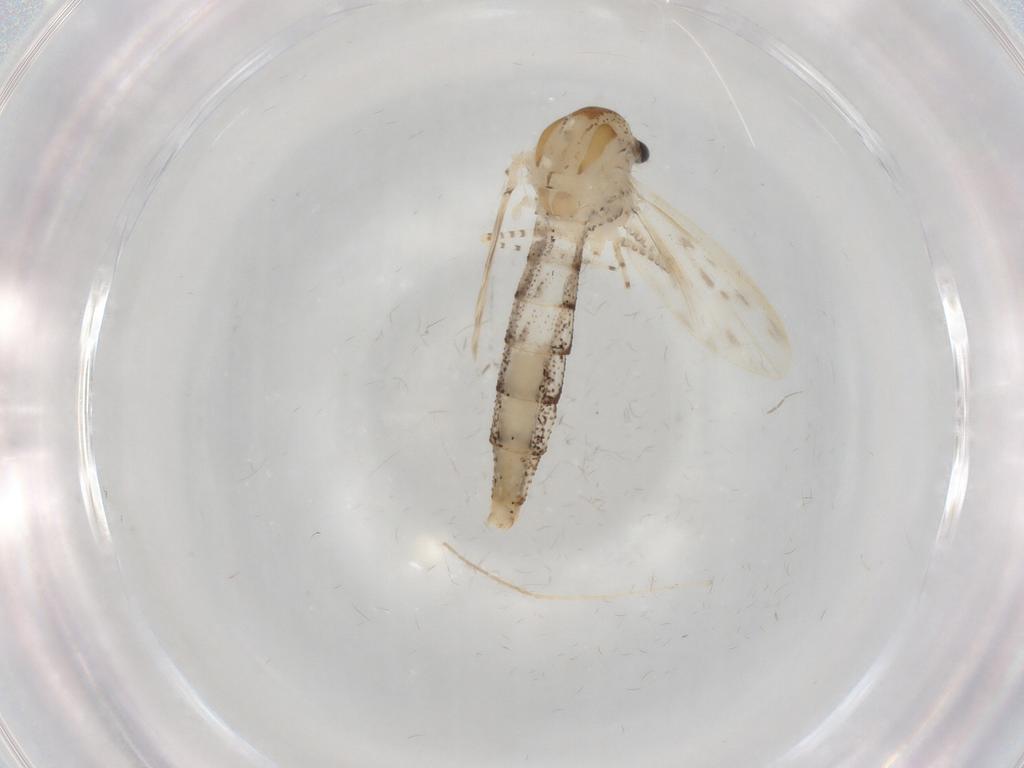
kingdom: Animalia
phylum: Arthropoda
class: Insecta
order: Diptera
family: Chaoboridae
